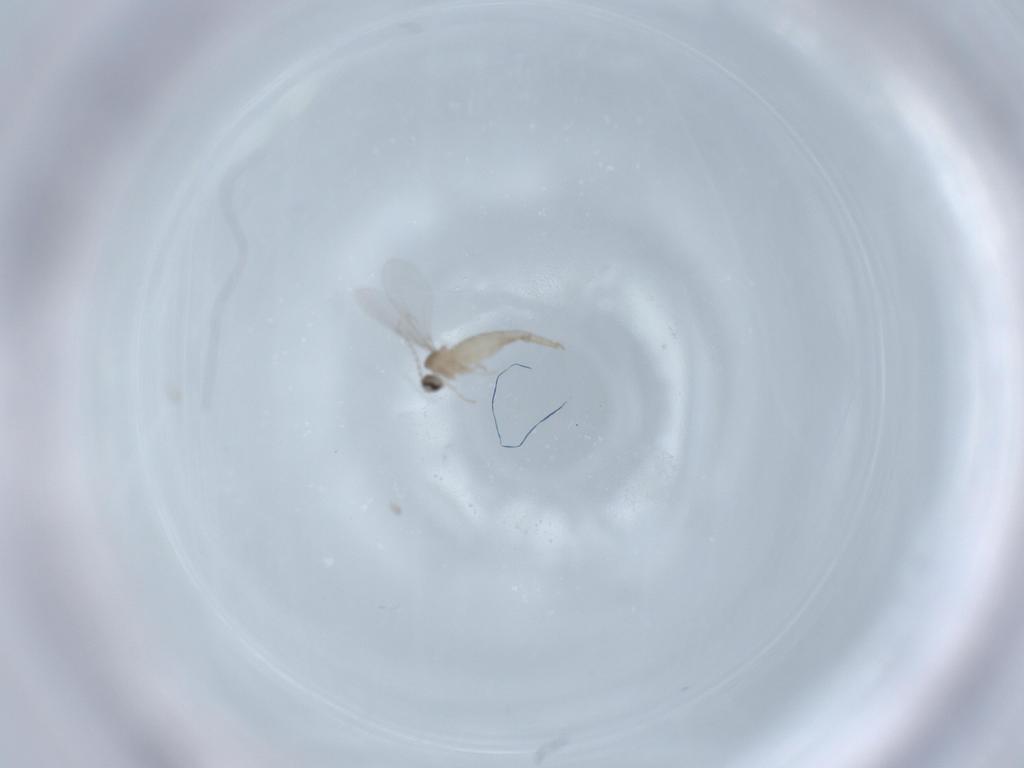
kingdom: Animalia
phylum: Arthropoda
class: Insecta
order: Diptera
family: Cecidomyiidae
